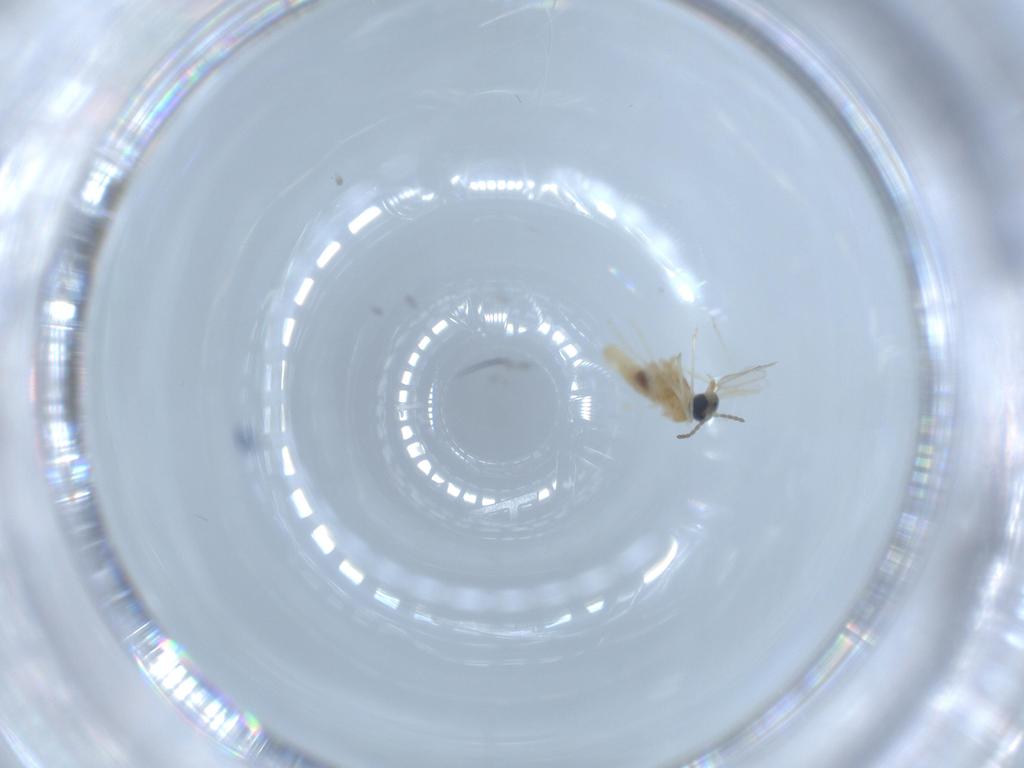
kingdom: Animalia
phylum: Arthropoda
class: Insecta
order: Diptera
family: Cecidomyiidae
